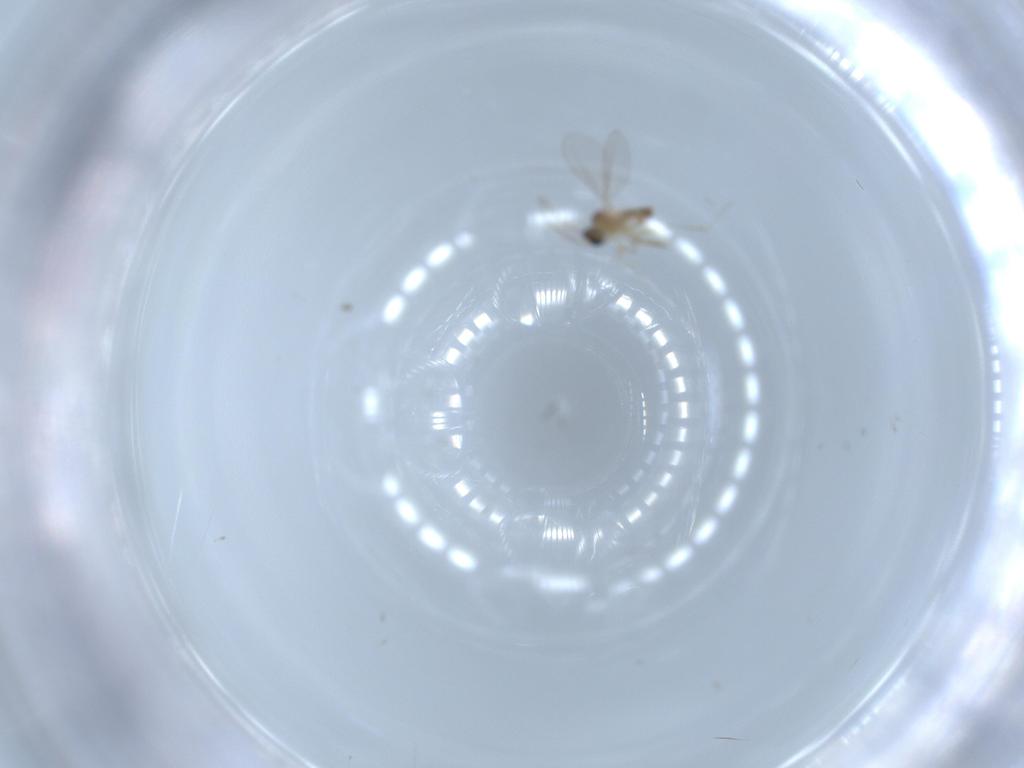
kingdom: Animalia
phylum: Arthropoda
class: Insecta
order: Diptera
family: Cecidomyiidae
